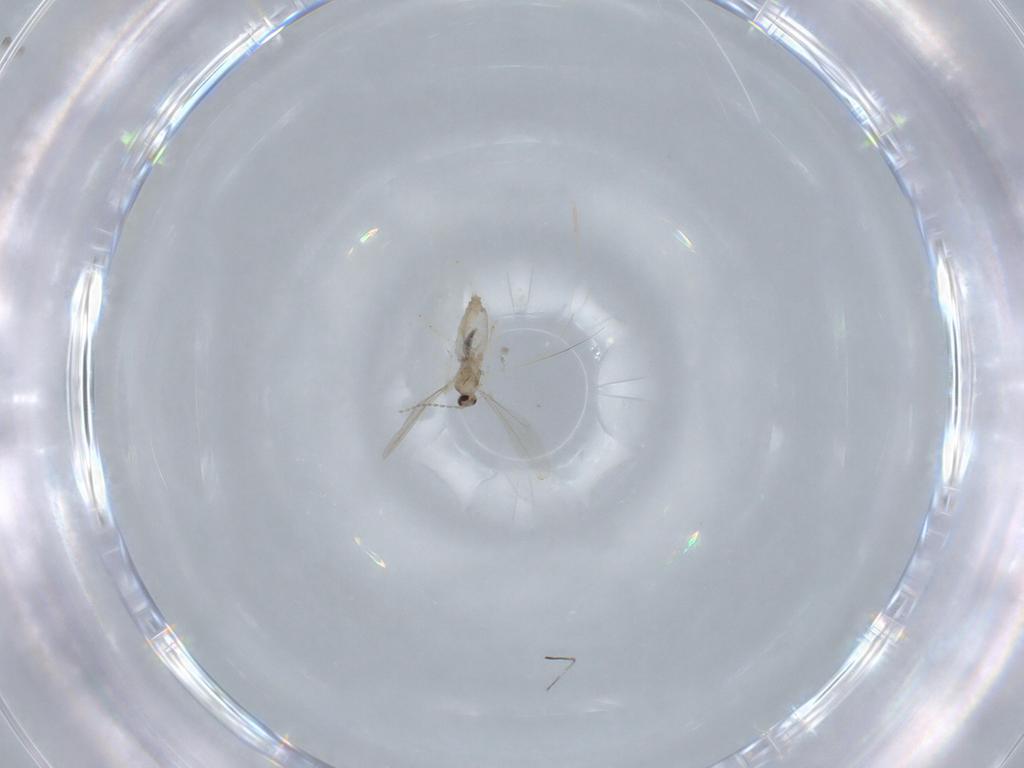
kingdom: Animalia
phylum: Arthropoda
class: Insecta
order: Diptera
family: Cecidomyiidae
